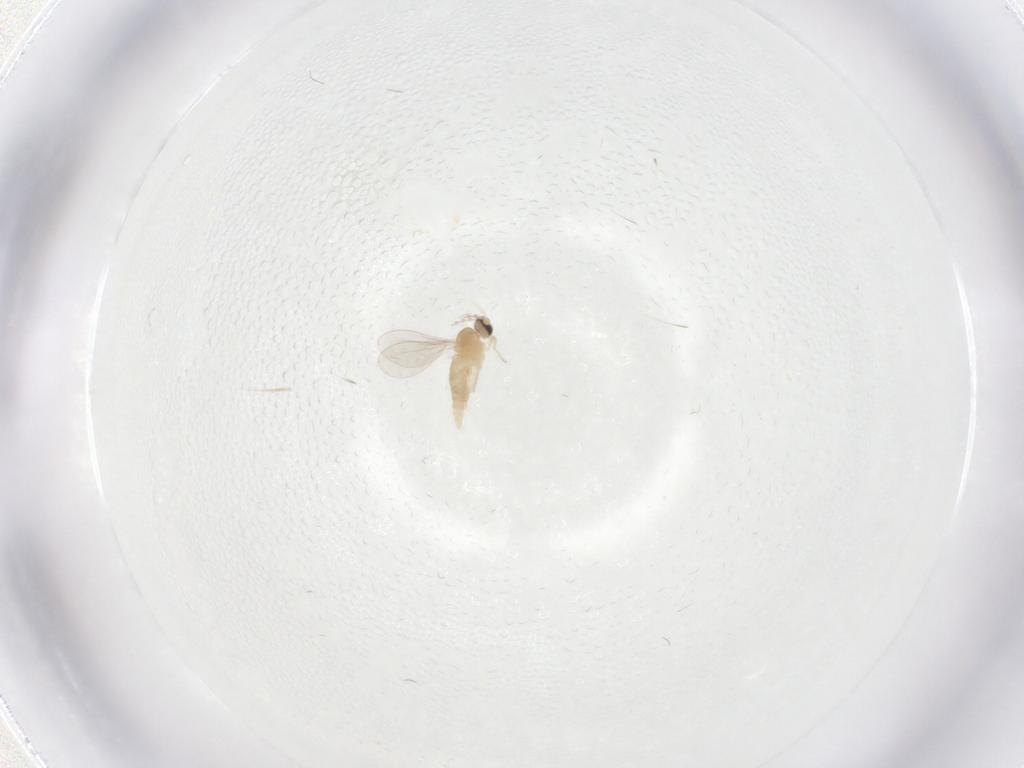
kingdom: Animalia
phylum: Arthropoda
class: Insecta
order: Diptera
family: Cecidomyiidae
